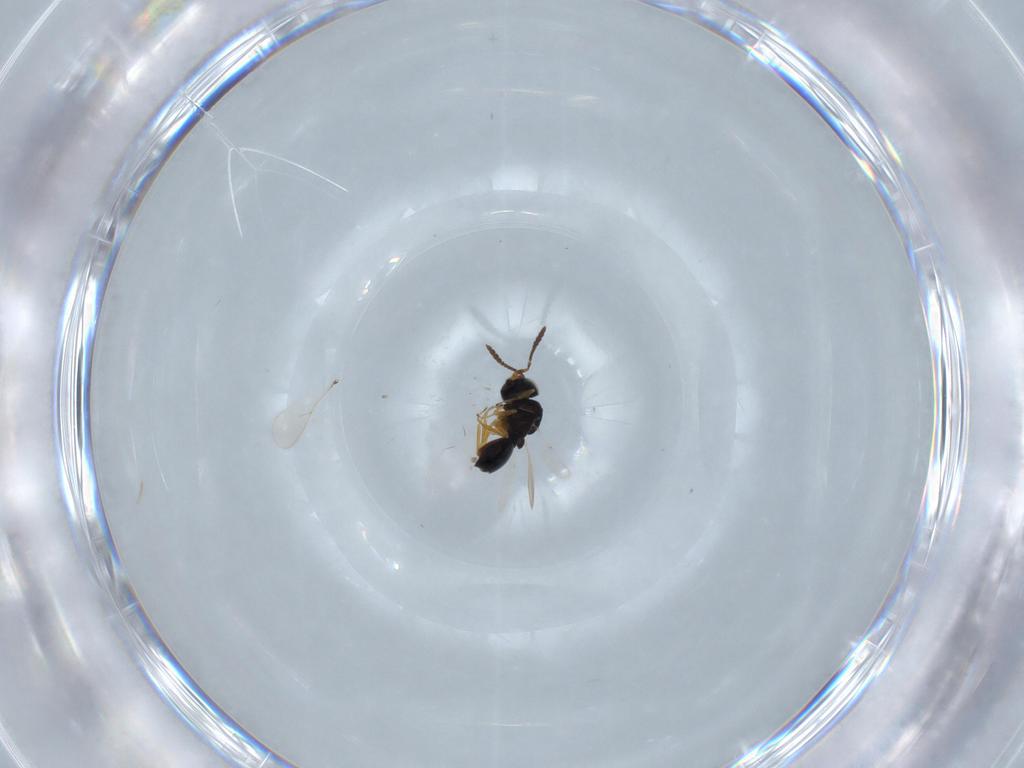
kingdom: Animalia
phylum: Arthropoda
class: Insecta
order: Hymenoptera
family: Scelionidae
